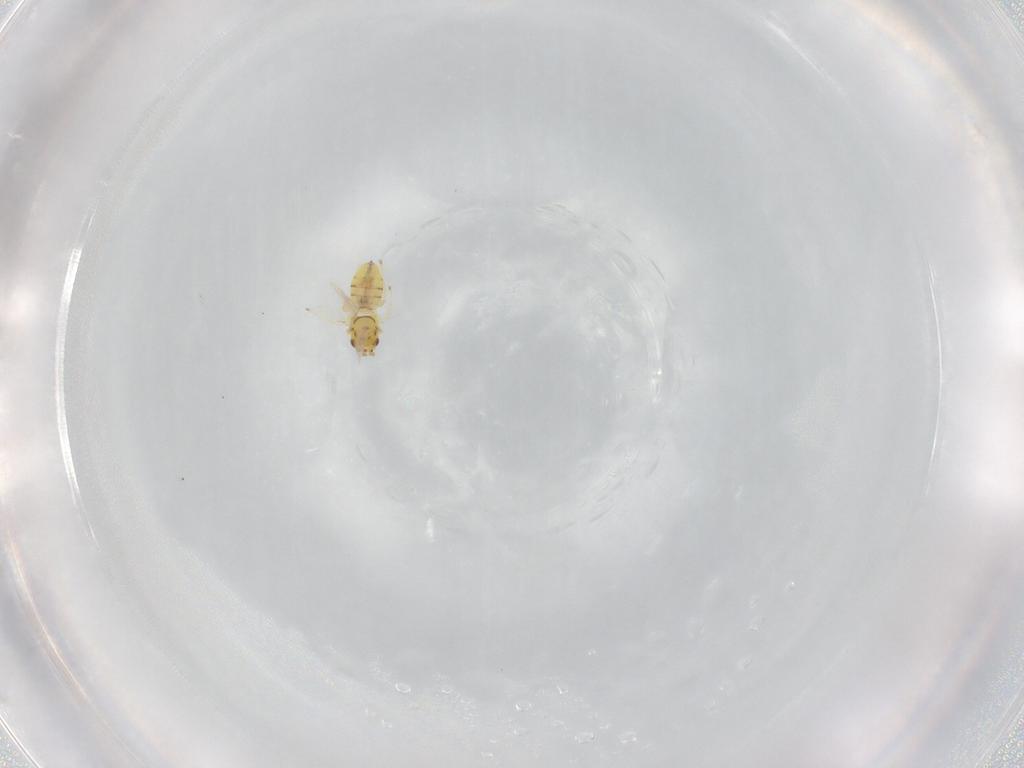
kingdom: Animalia
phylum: Arthropoda
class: Insecta
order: Hymenoptera
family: Eulophidae
